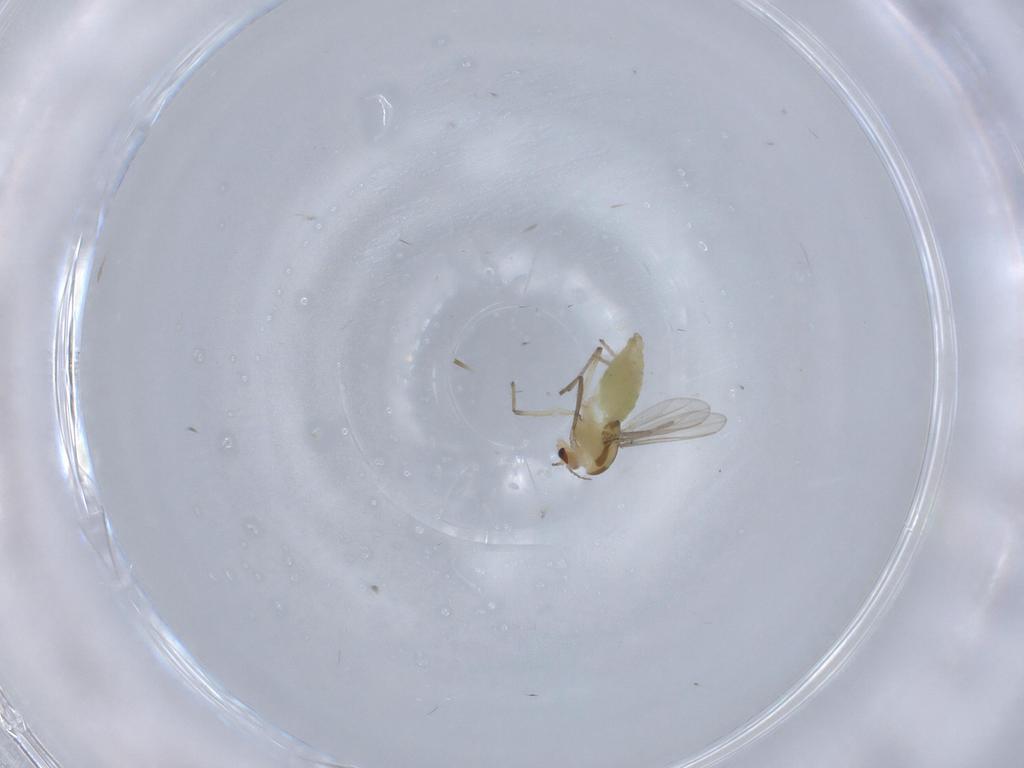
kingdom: Animalia
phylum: Arthropoda
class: Insecta
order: Diptera
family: Chironomidae
